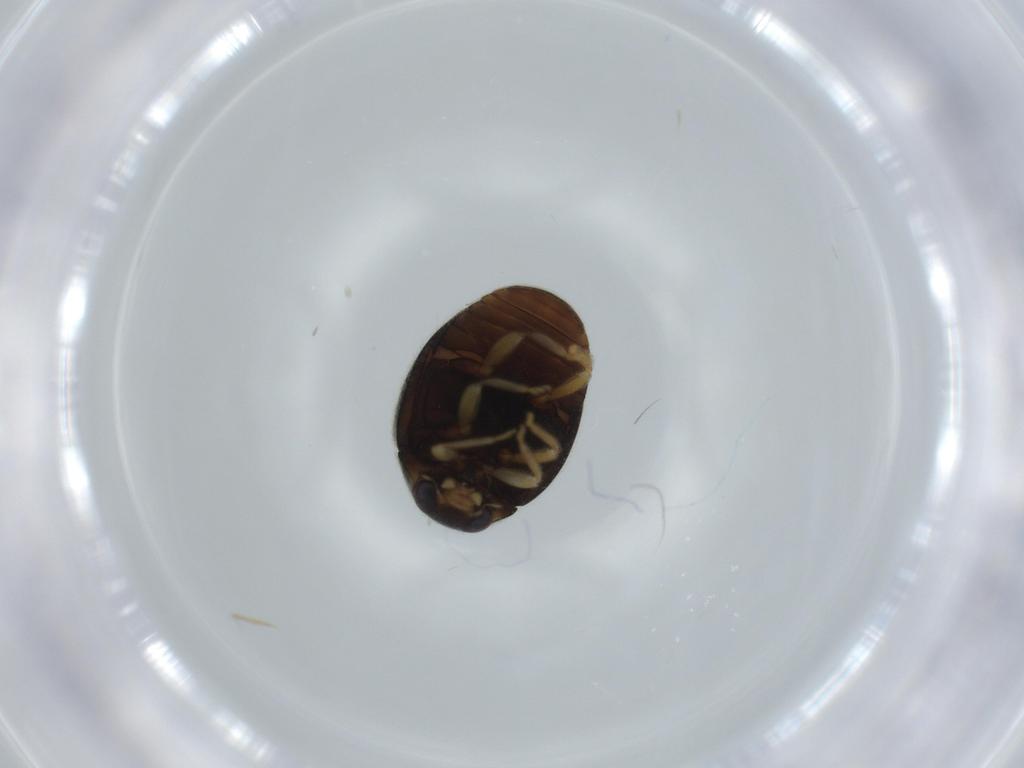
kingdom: Animalia
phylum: Arthropoda
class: Insecta
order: Coleoptera
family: Coccinellidae
